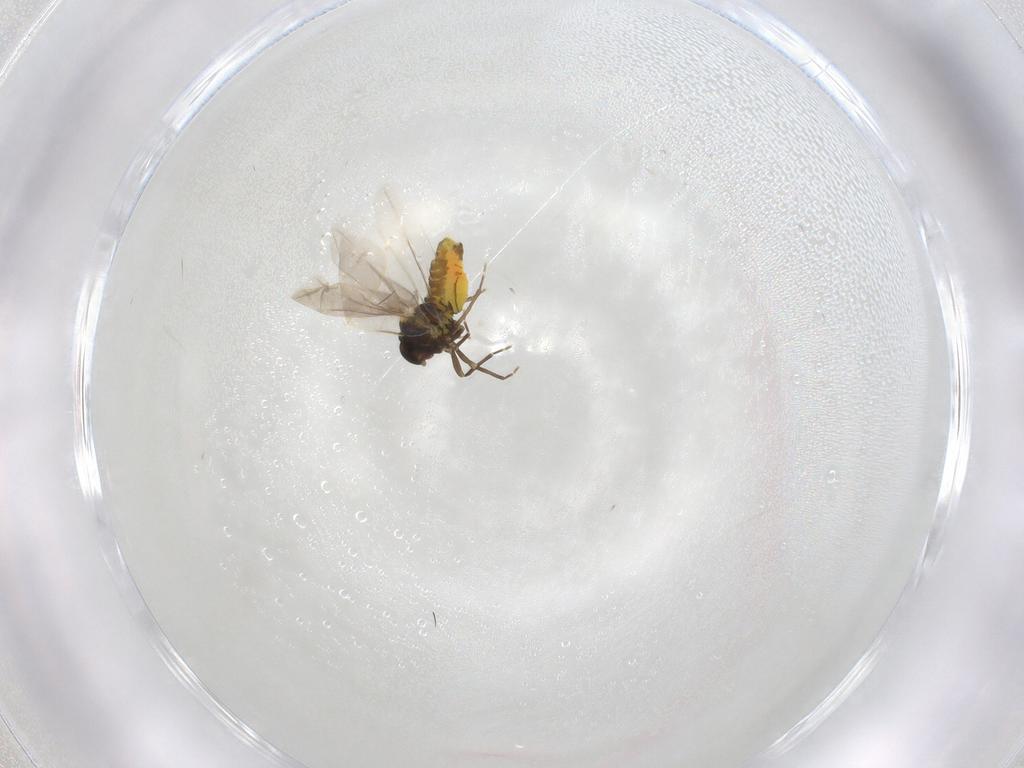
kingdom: Animalia
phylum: Arthropoda
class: Insecta
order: Hemiptera
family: Aleyrodidae
